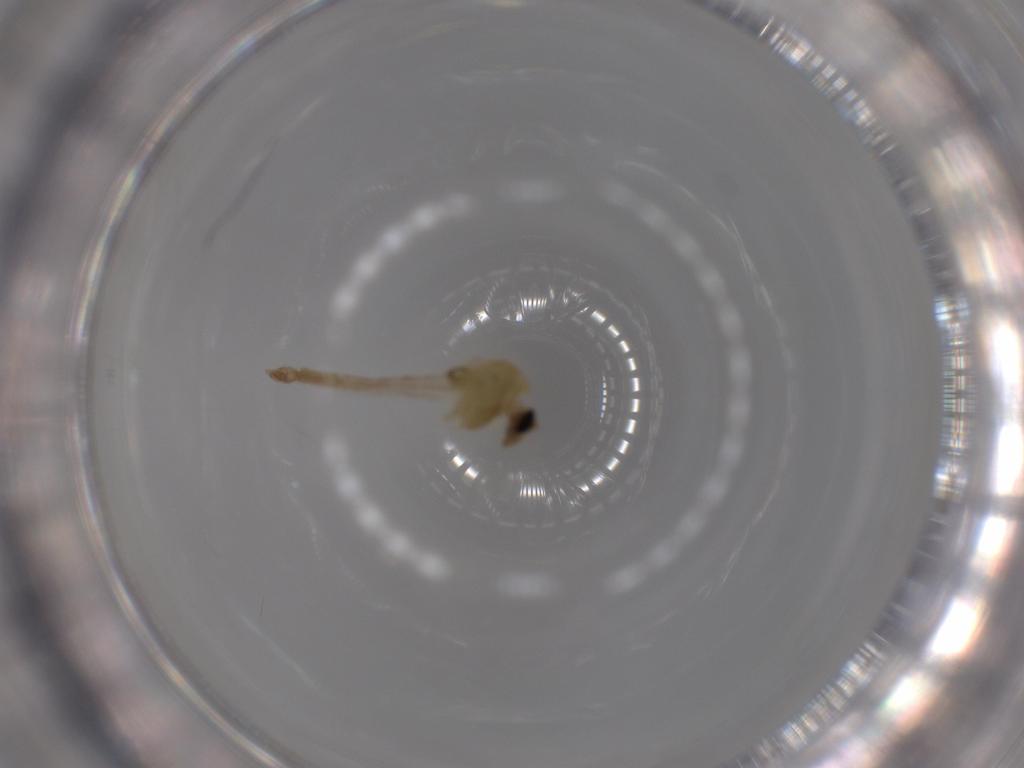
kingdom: Animalia
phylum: Arthropoda
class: Insecta
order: Diptera
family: Chironomidae
